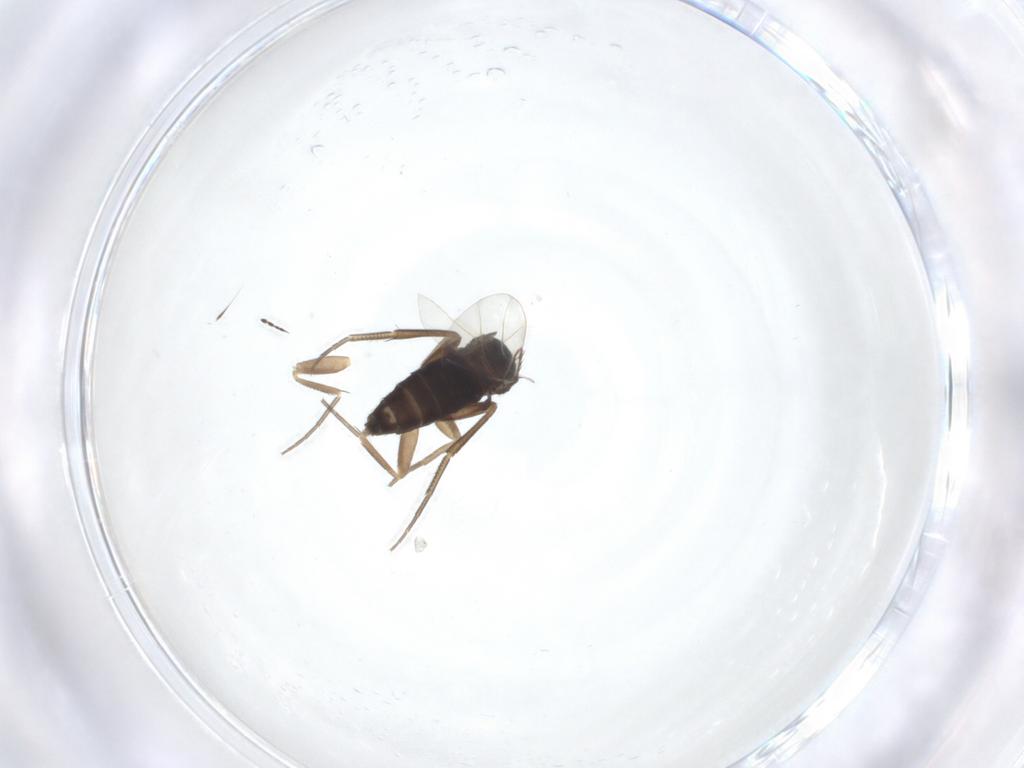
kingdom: Animalia
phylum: Arthropoda
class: Insecta
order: Diptera
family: Phoridae
